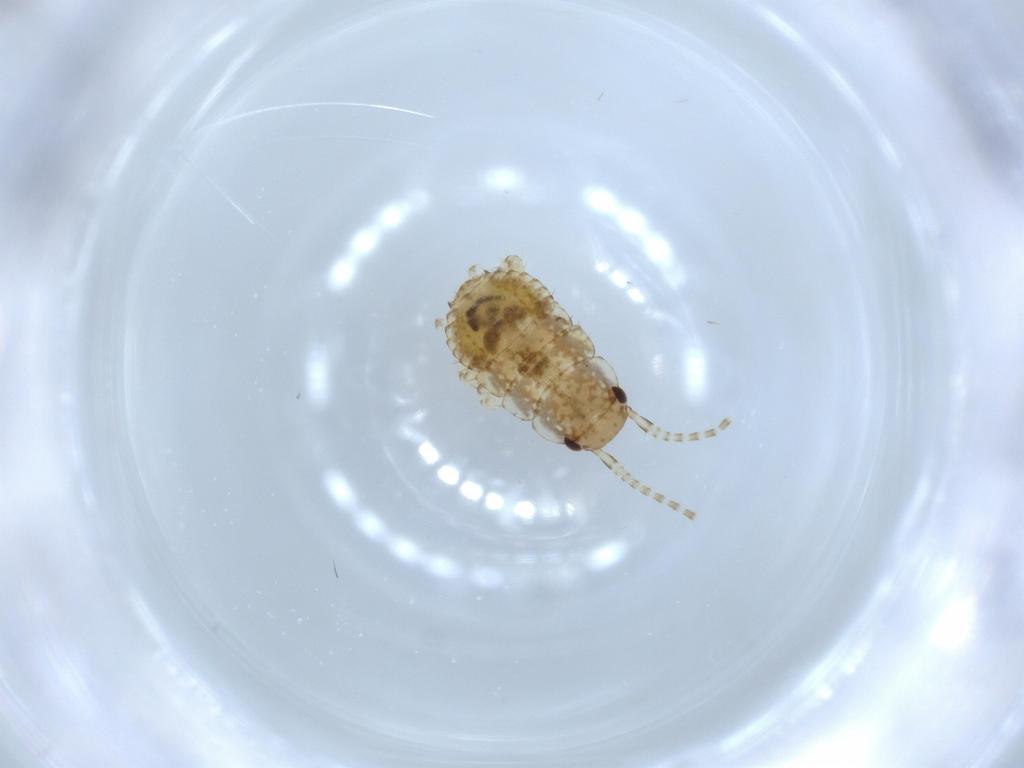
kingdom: Animalia
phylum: Arthropoda
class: Insecta
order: Blattodea
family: Ectobiidae
